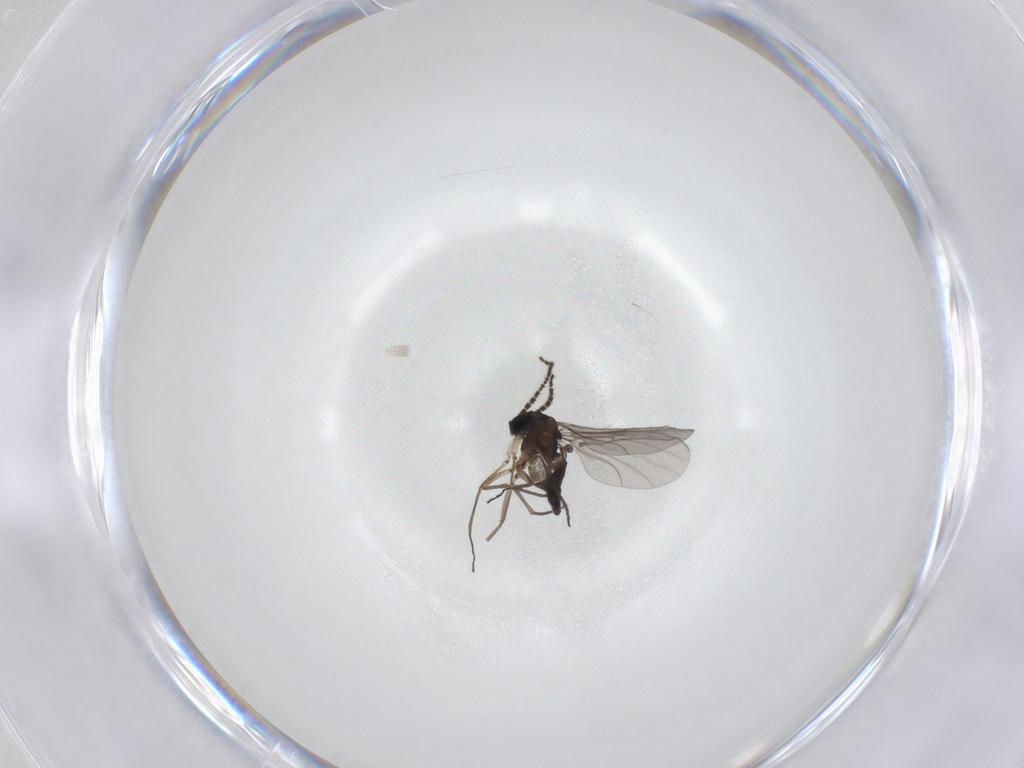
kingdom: Animalia
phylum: Arthropoda
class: Insecta
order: Diptera
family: Sciaridae
